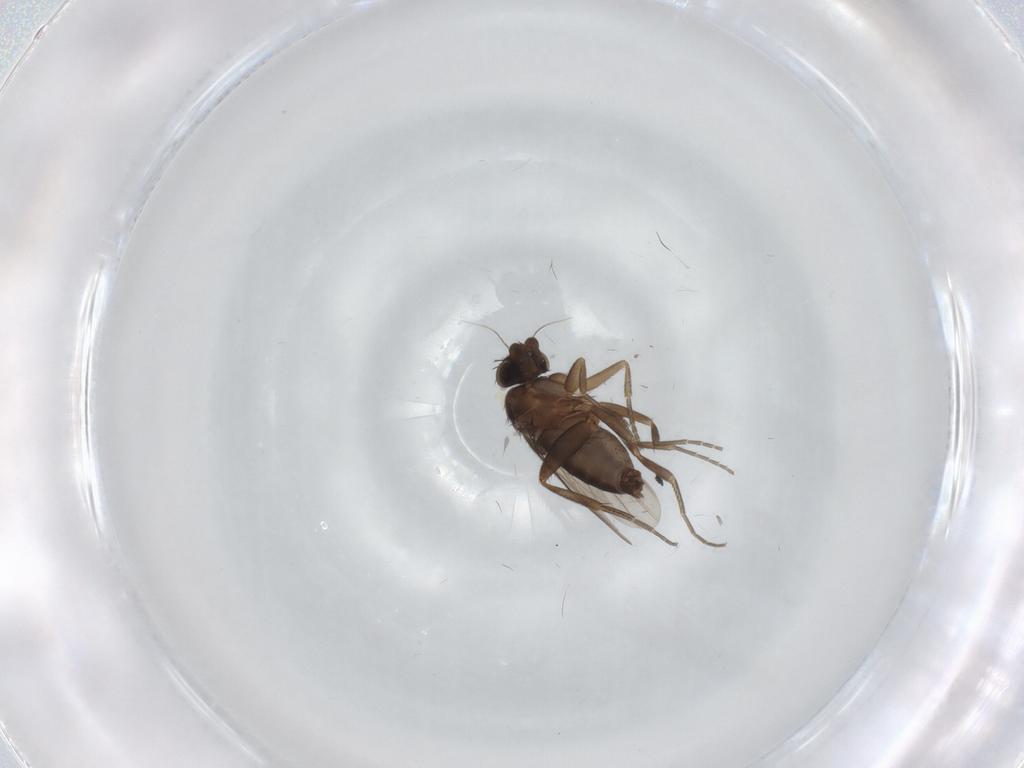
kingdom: Animalia
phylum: Arthropoda
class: Insecta
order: Diptera
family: Phoridae
